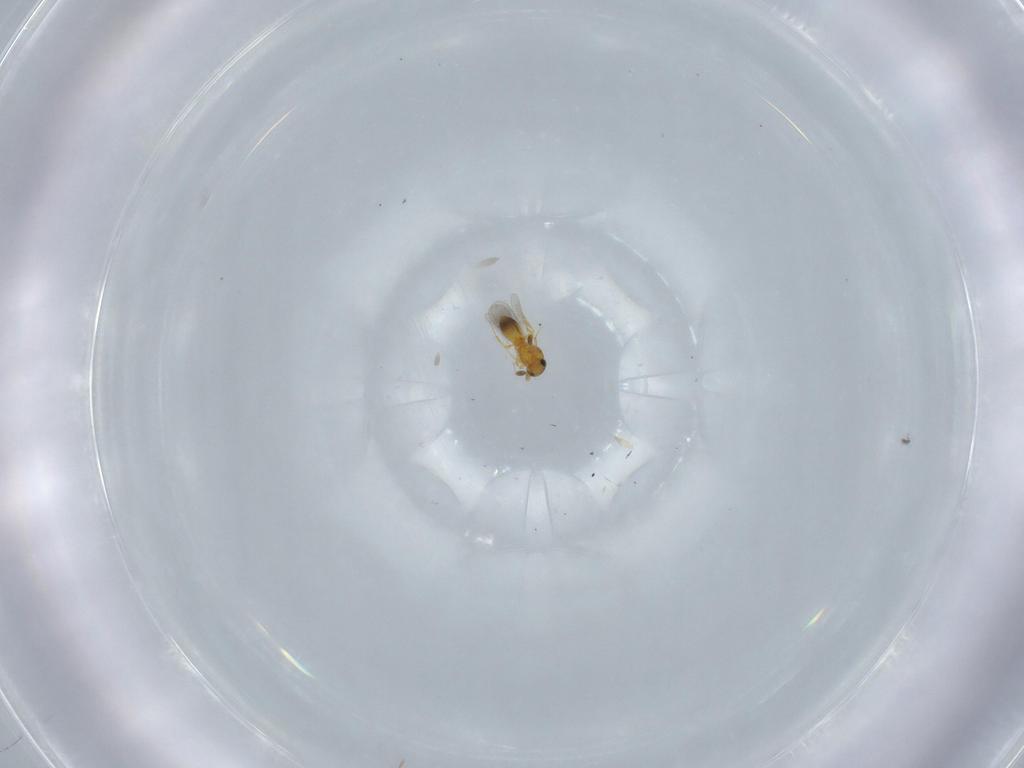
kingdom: Animalia
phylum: Arthropoda
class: Insecta
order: Hymenoptera
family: Platygastridae
